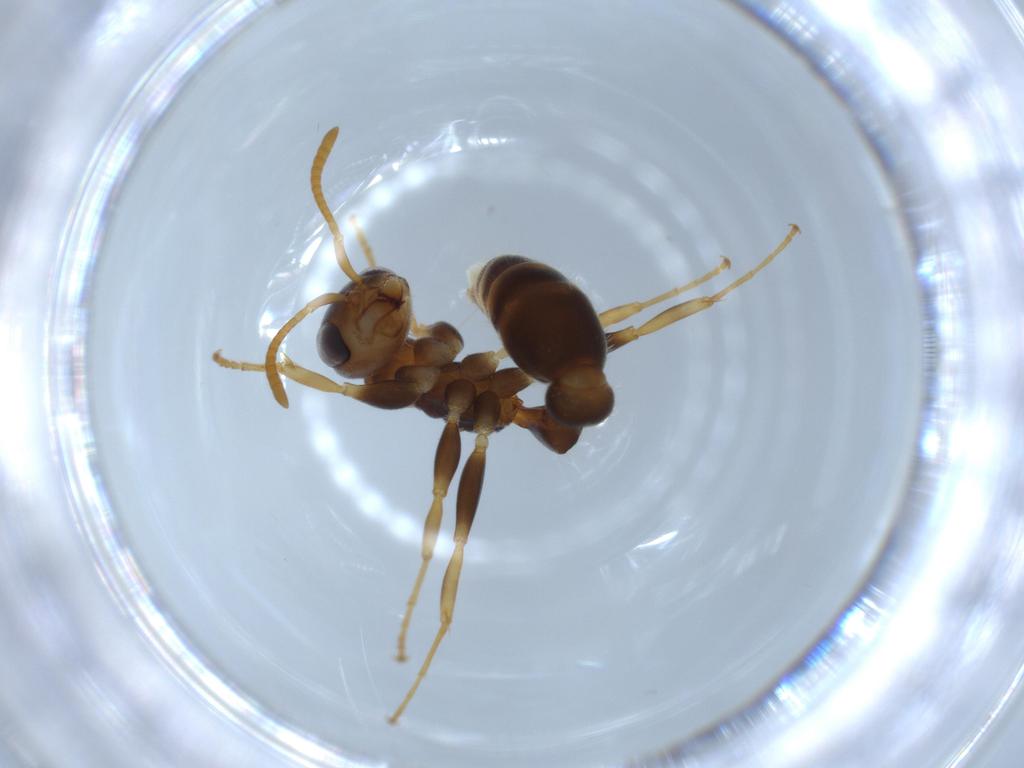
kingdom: Animalia
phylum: Arthropoda
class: Insecta
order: Hymenoptera
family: Formicidae
